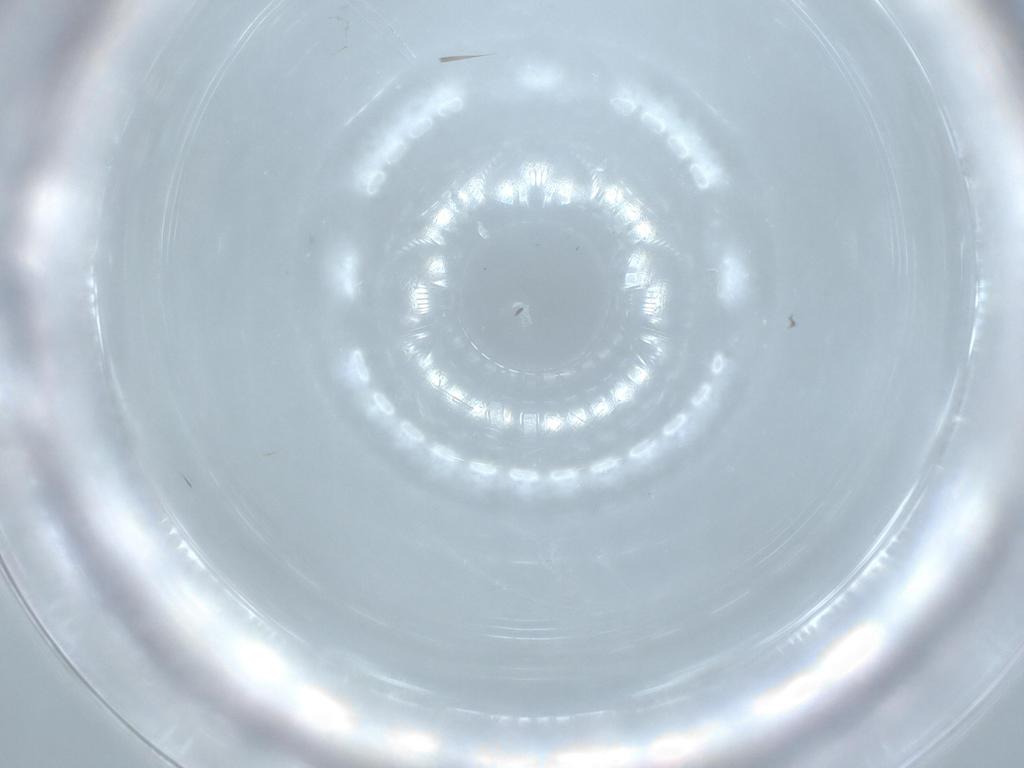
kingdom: Animalia
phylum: Arthropoda
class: Insecta
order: Diptera
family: Cecidomyiidae
